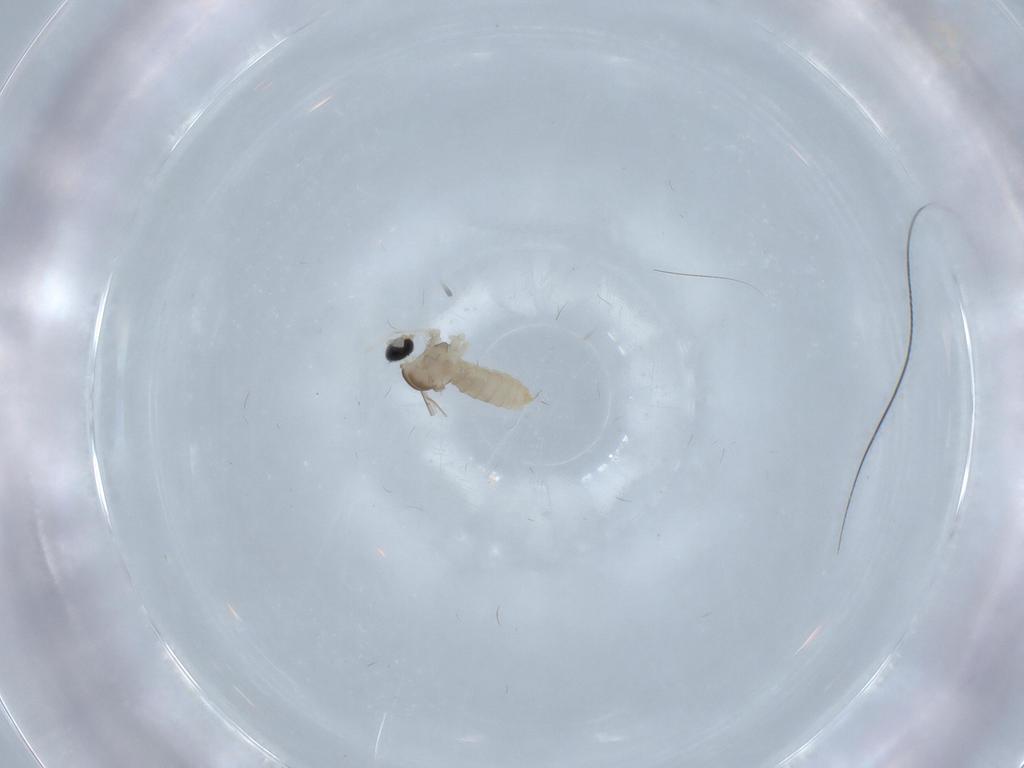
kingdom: Animalia
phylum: Arthropoda
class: Insecta
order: Diptera
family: Cecidomyiidae
